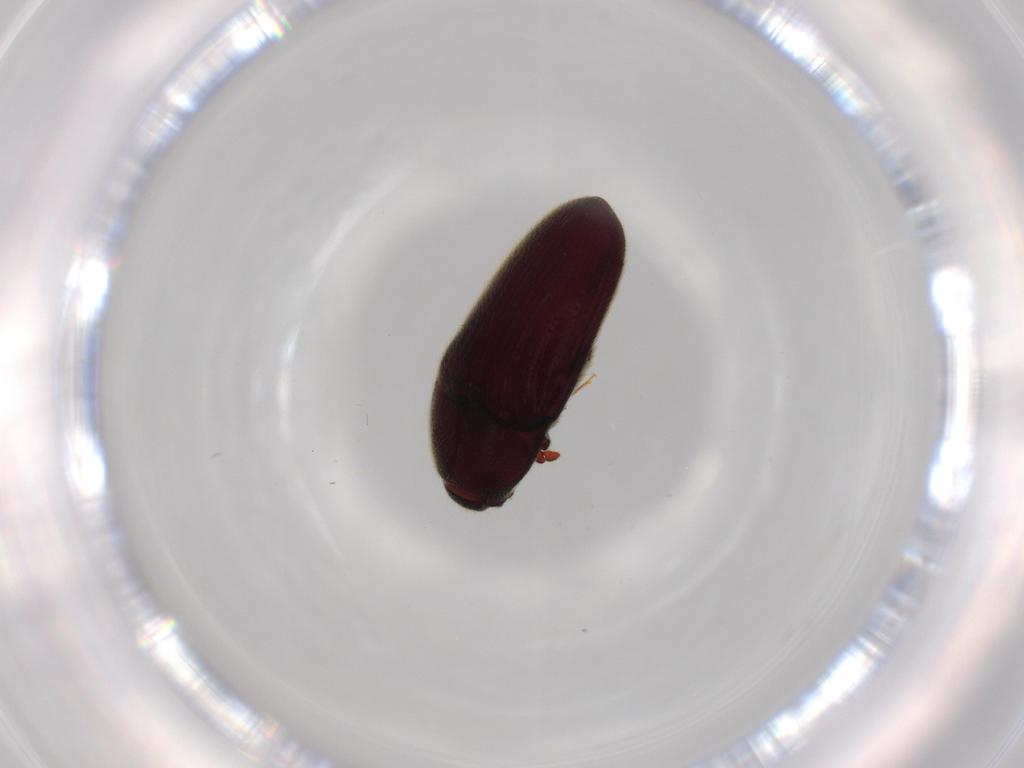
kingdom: Animalia
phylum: Arthropoda
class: Insecta
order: Coleoptera
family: Throscidae
